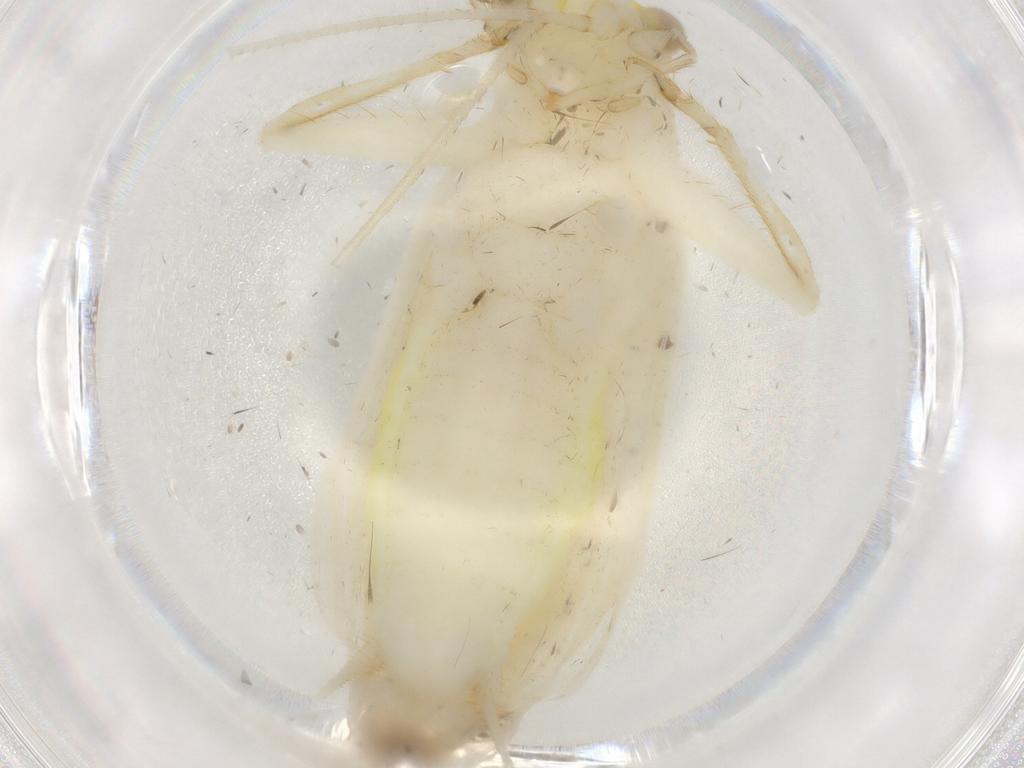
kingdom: Animalia
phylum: Arthropoda
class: Insecta
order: Orthoptera
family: Trigonidiidae
